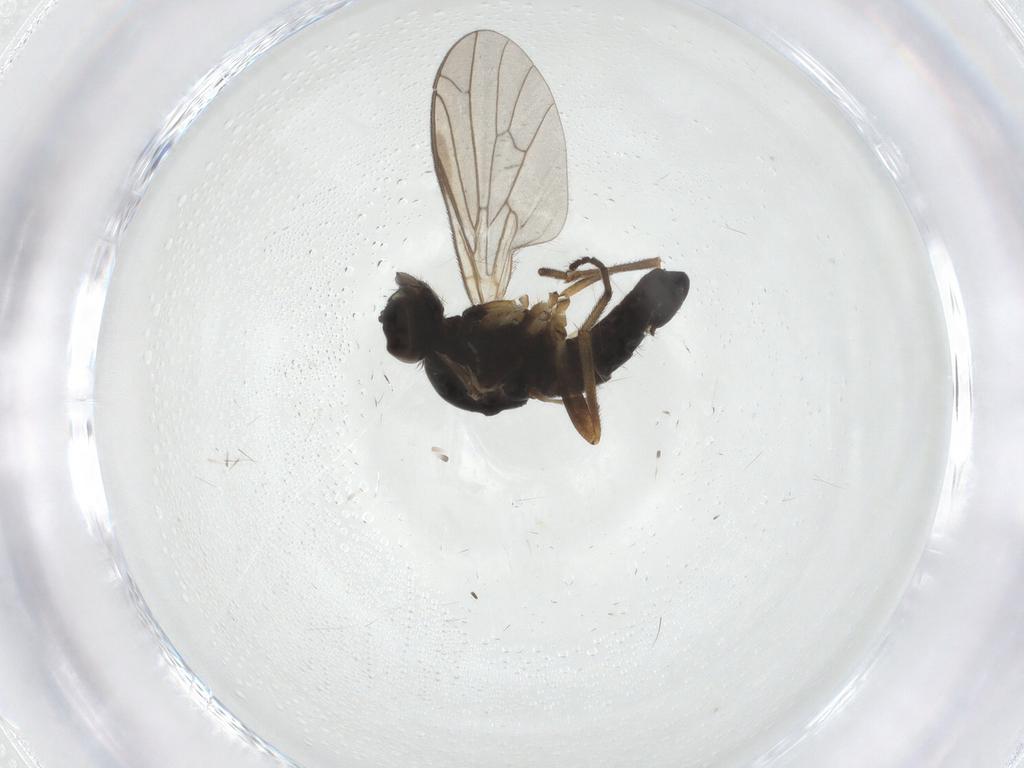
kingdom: Animalia
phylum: Arthropoda
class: Insecta
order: Diptera
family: Empididae
